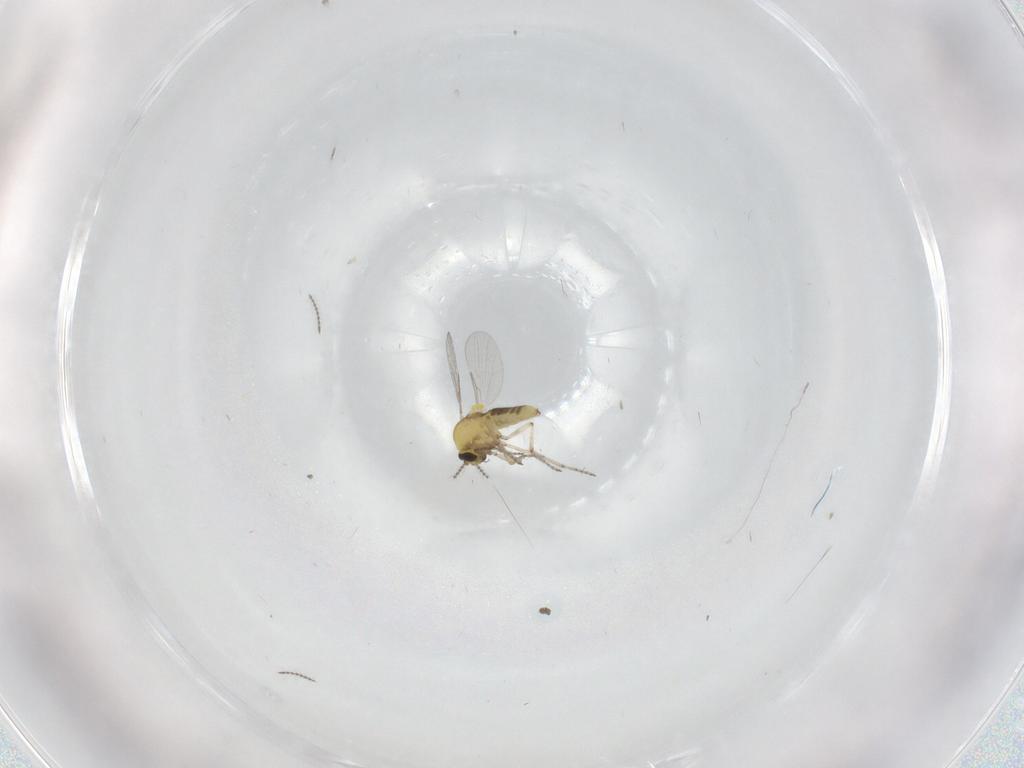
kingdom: Animalia
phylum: Arthropoda
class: Insecta
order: Diptera
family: Ceratopogonidae
